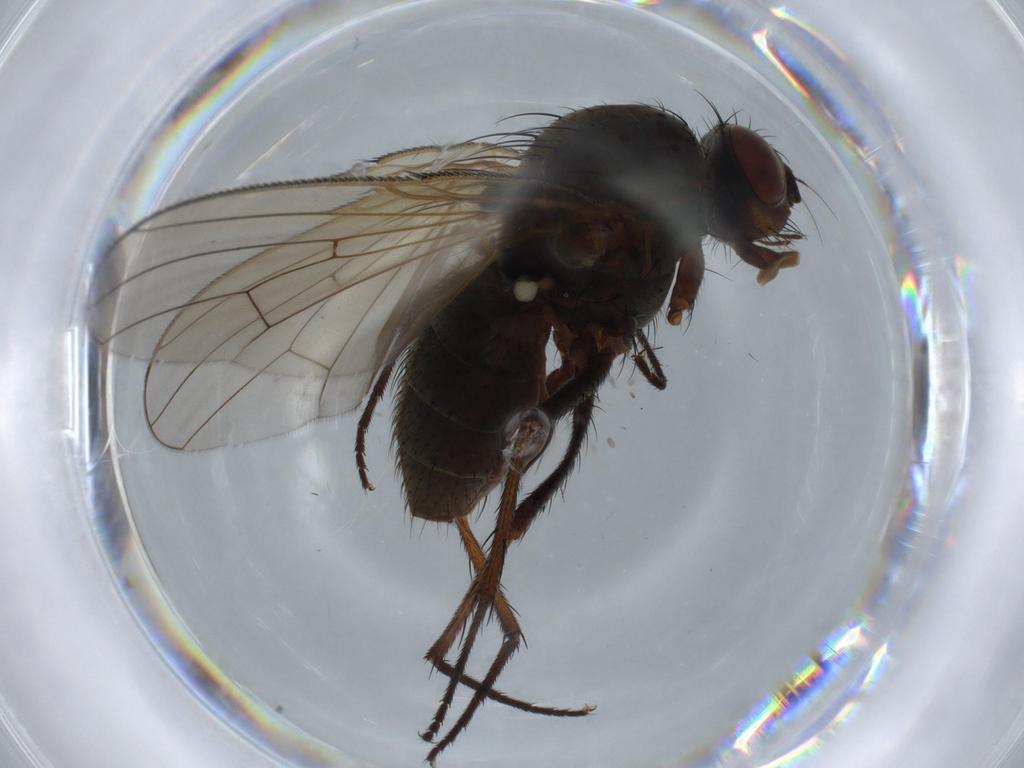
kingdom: Animalia
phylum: Arthropoda
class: Insecta
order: Diptera
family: Anthomyiidae
